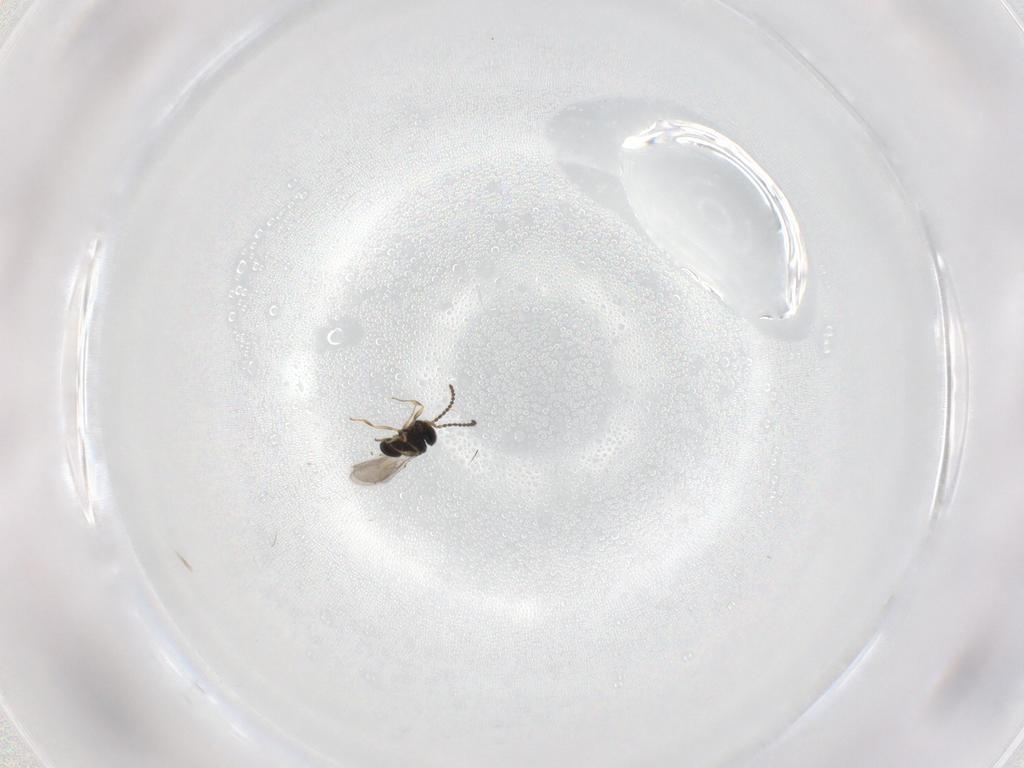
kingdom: Animalia
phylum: Arthropoda
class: Insecta
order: Hymenoptera
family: Scelionidae
